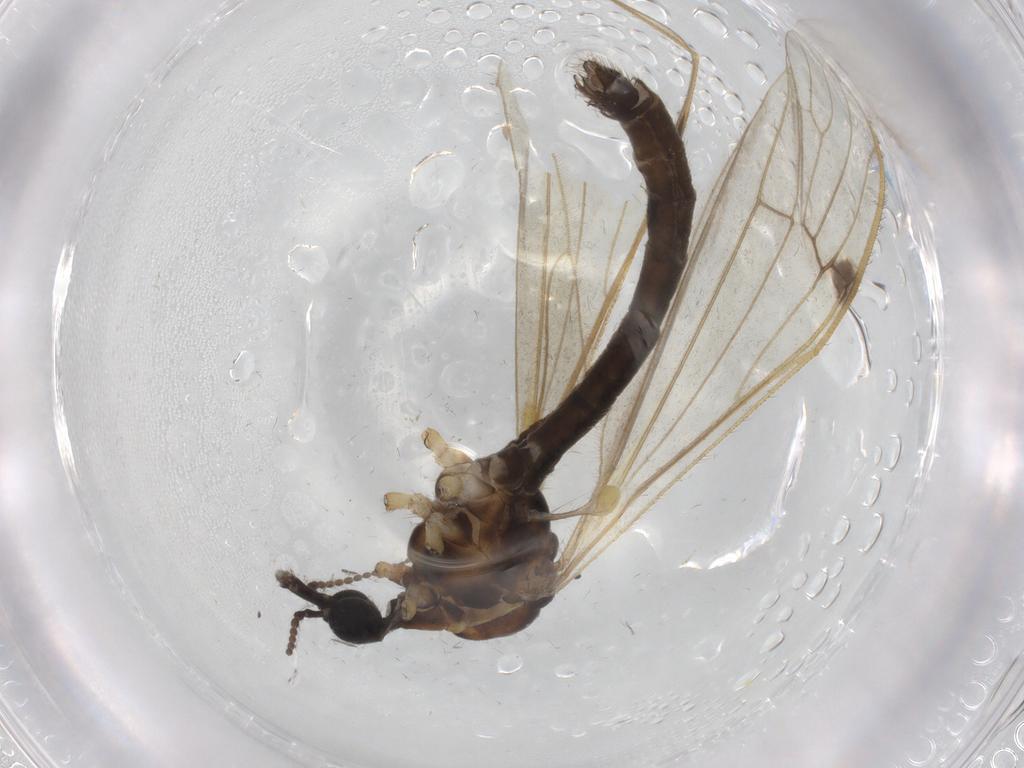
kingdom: Animalia
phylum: Arthropoda
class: Insecta
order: Diptera
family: Limoniidae
